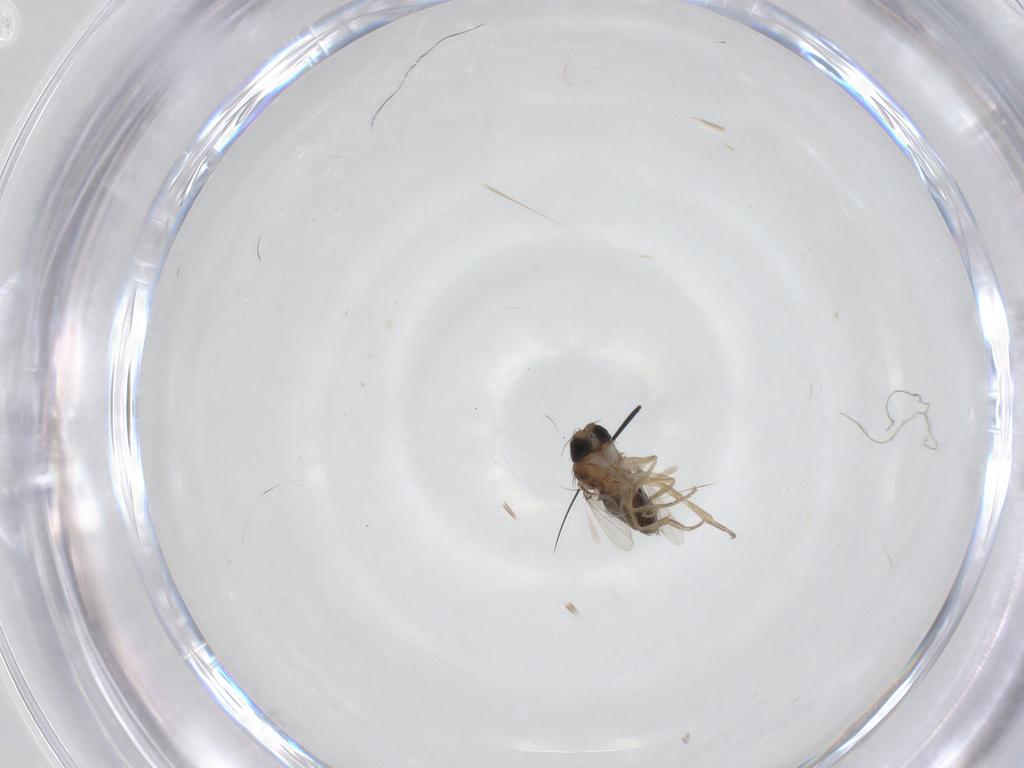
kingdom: Animalia
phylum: Arthropoda
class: Insecta
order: Diptera
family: Tachinidae
